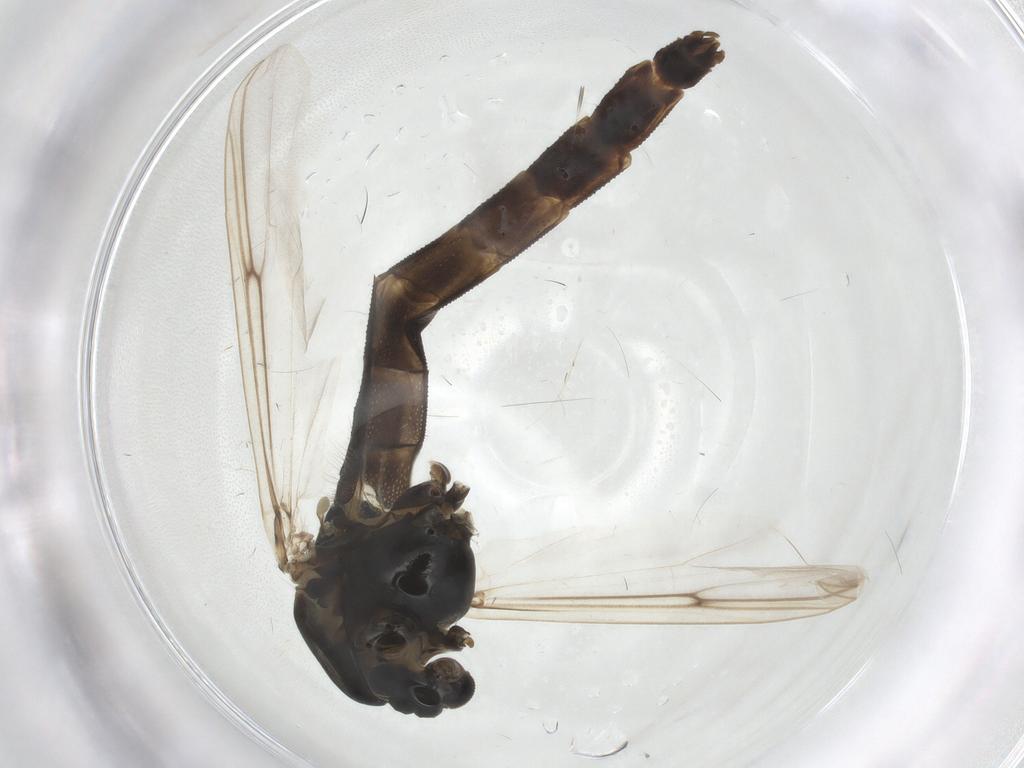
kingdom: Animalia
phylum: Arthropoda
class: Insecta
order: Diptera
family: Chironomidae
